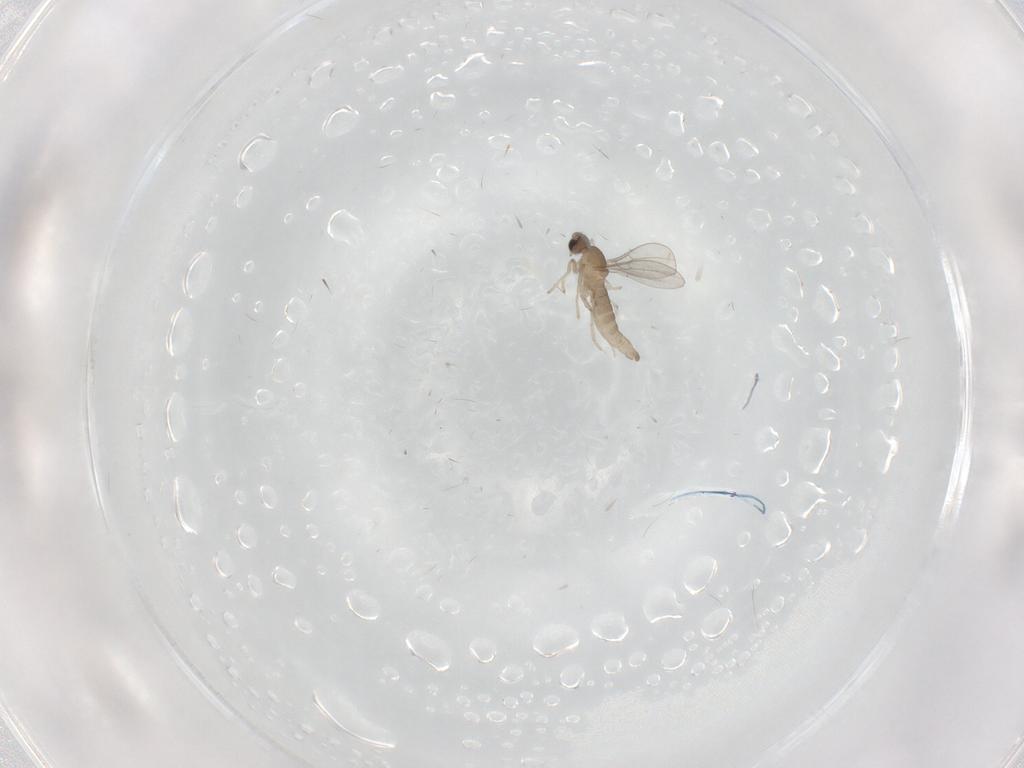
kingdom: Animalia
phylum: Arthropoda
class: Insecta
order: Diptera
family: Cecidomyiidae
